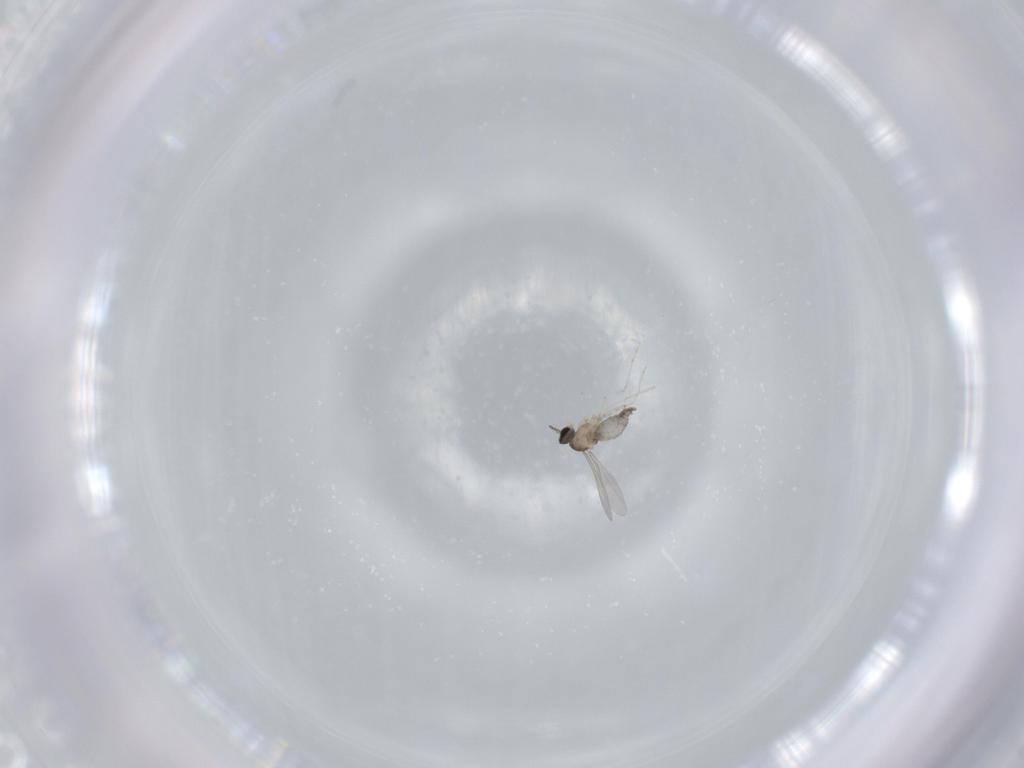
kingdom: Animalia
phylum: Arthropoda
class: Insecta
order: Diptera
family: Cecidomyiidae
